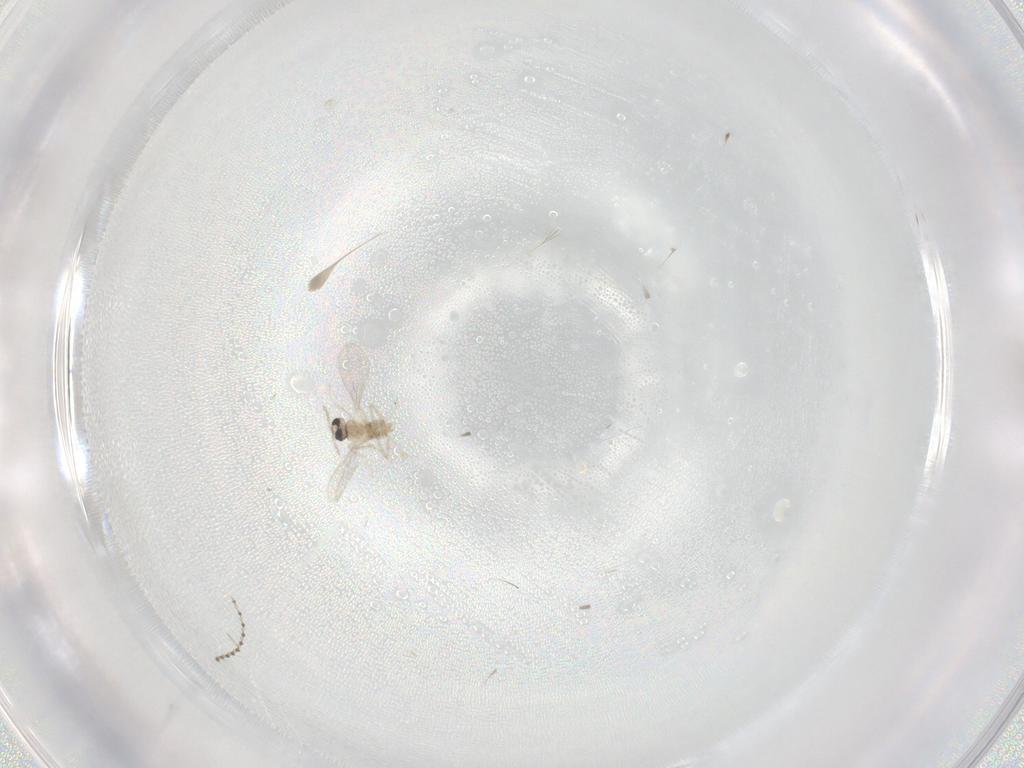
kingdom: Animalia
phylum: Arthropoda
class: Insecta
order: Diptera
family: Cecidomyiidae
